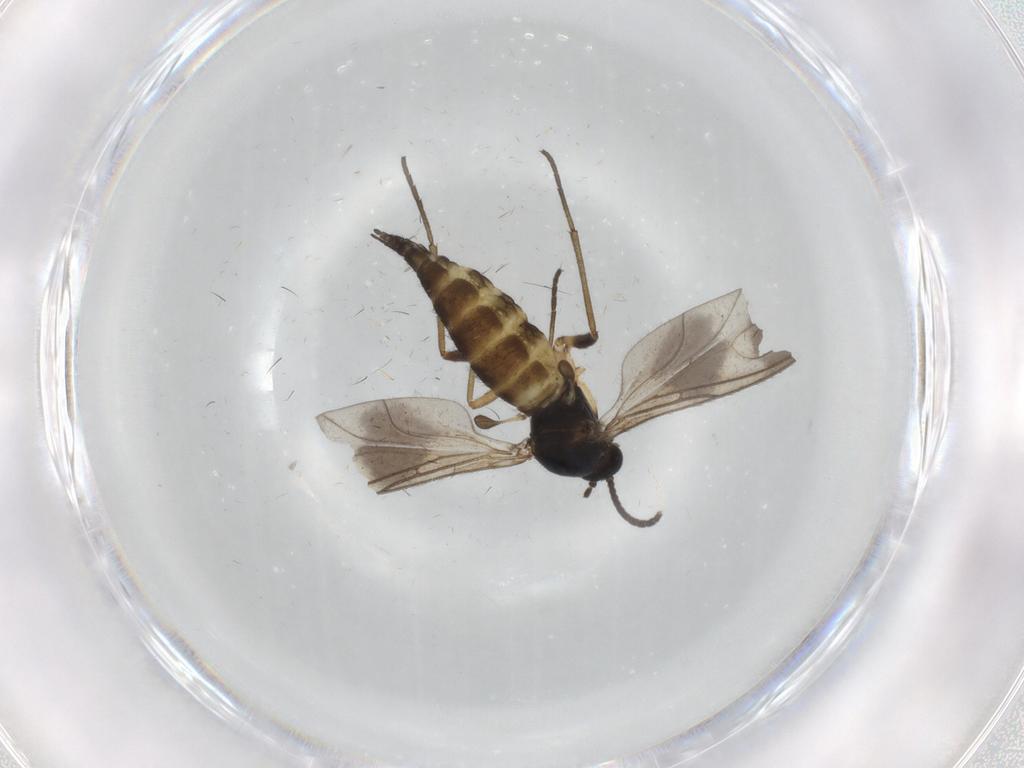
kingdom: Animalia
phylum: Arthropoda
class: Insecta
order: Diptera
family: Sciaridae
